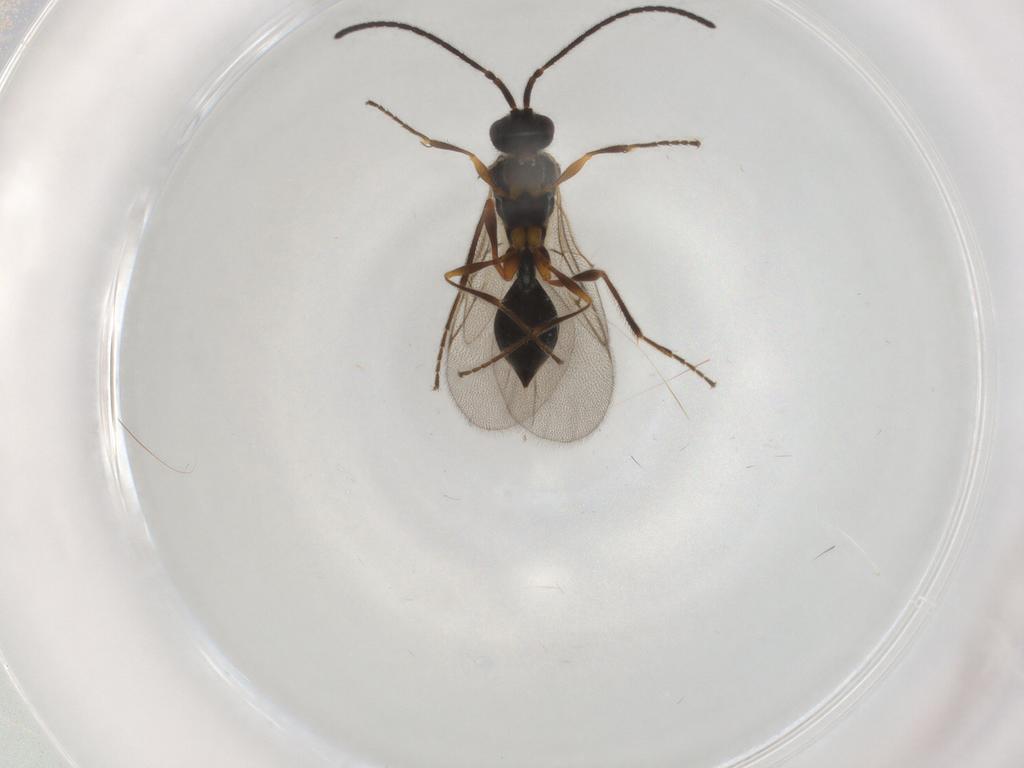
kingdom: Animalia
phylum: Arthropoda
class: Insecta
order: Hymenoptera
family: Diapriidae
